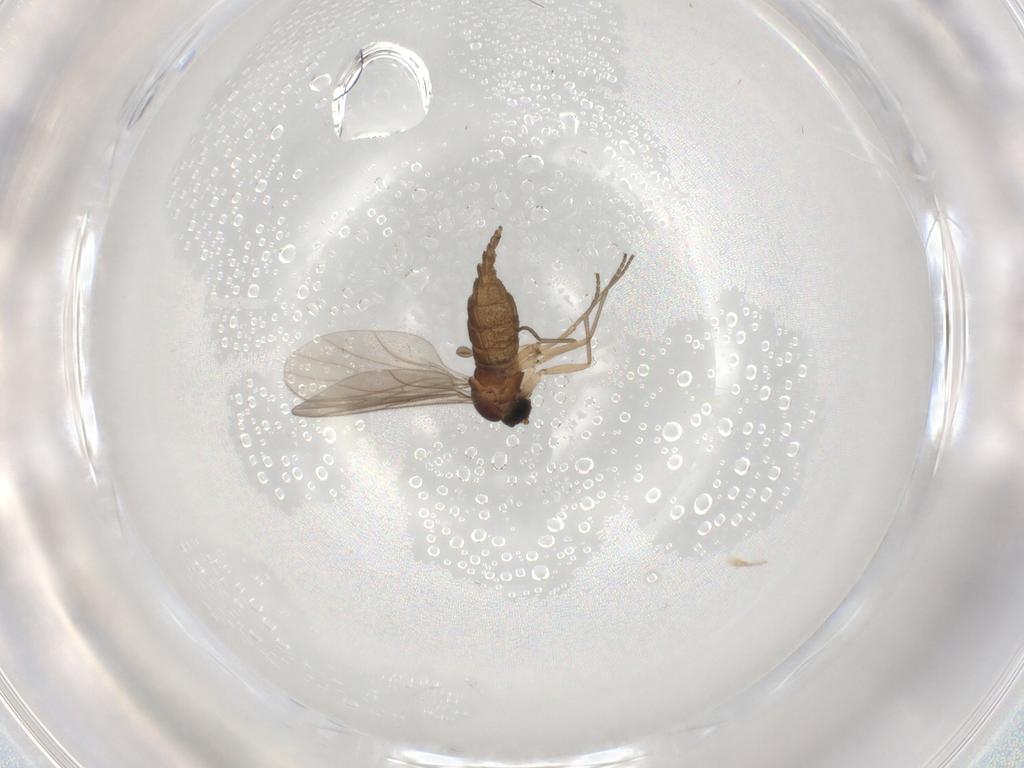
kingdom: Animalia
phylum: Arthropoda
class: Insecta
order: Diptera
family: Sciaridae
